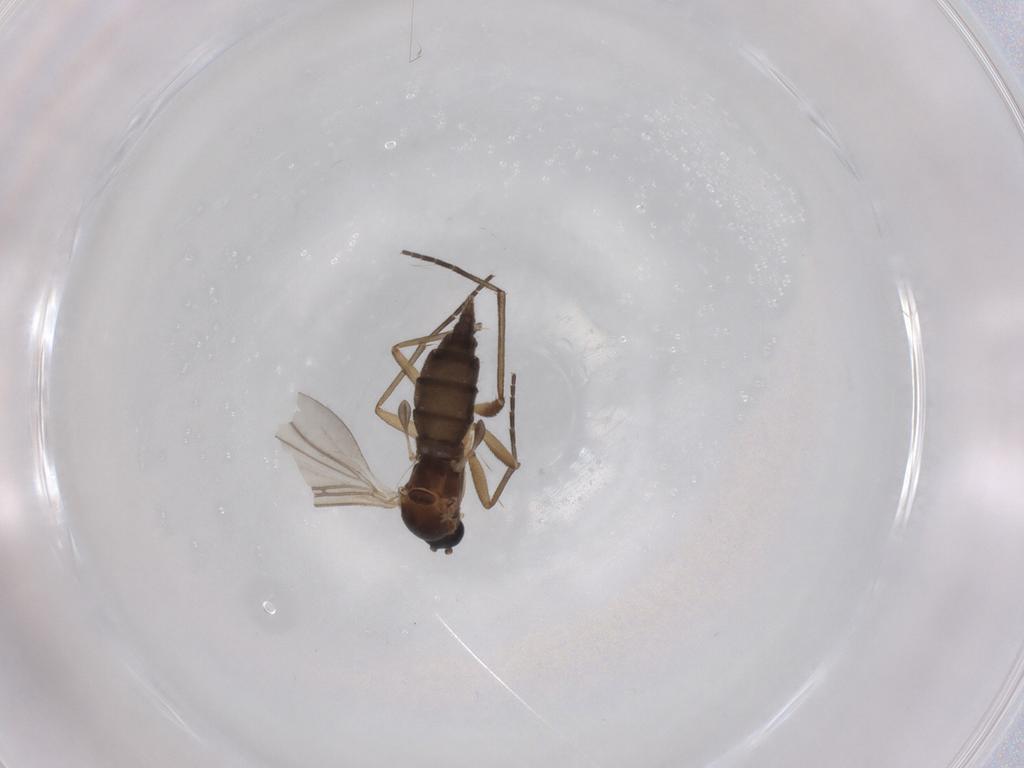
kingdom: Animalia
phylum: Arthropoda
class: Insecta
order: Diptera
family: Sciaridae
